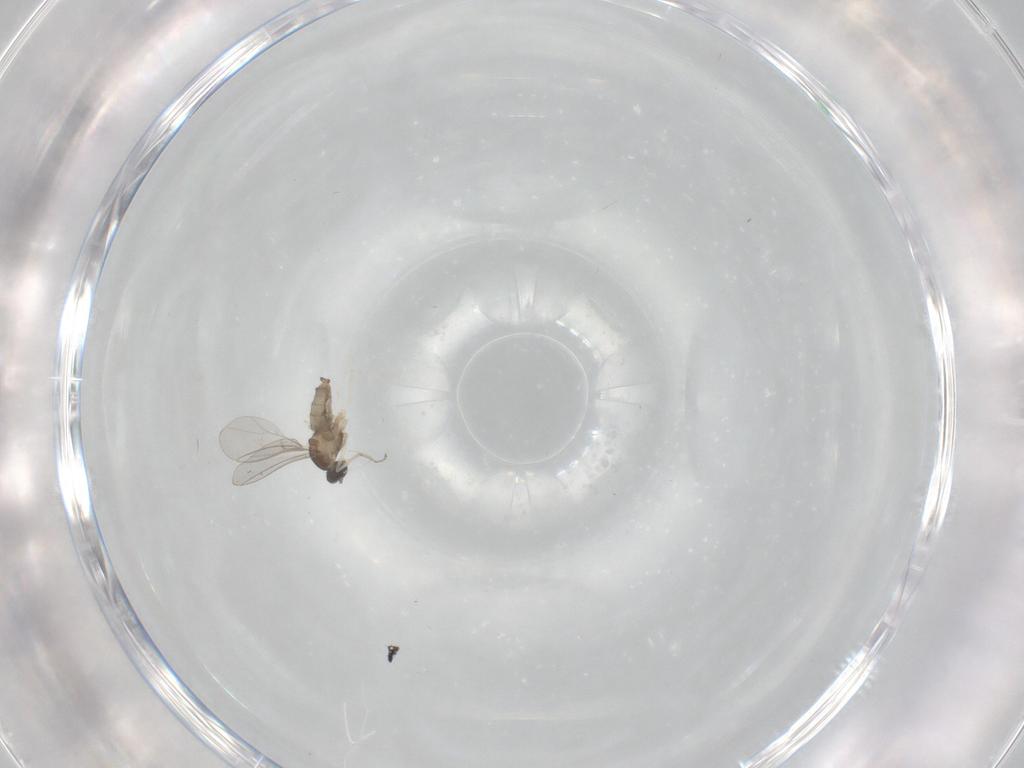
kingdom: Animalia
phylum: Arthropoda
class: Insecta
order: Diptera
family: Cecidomyiidae
